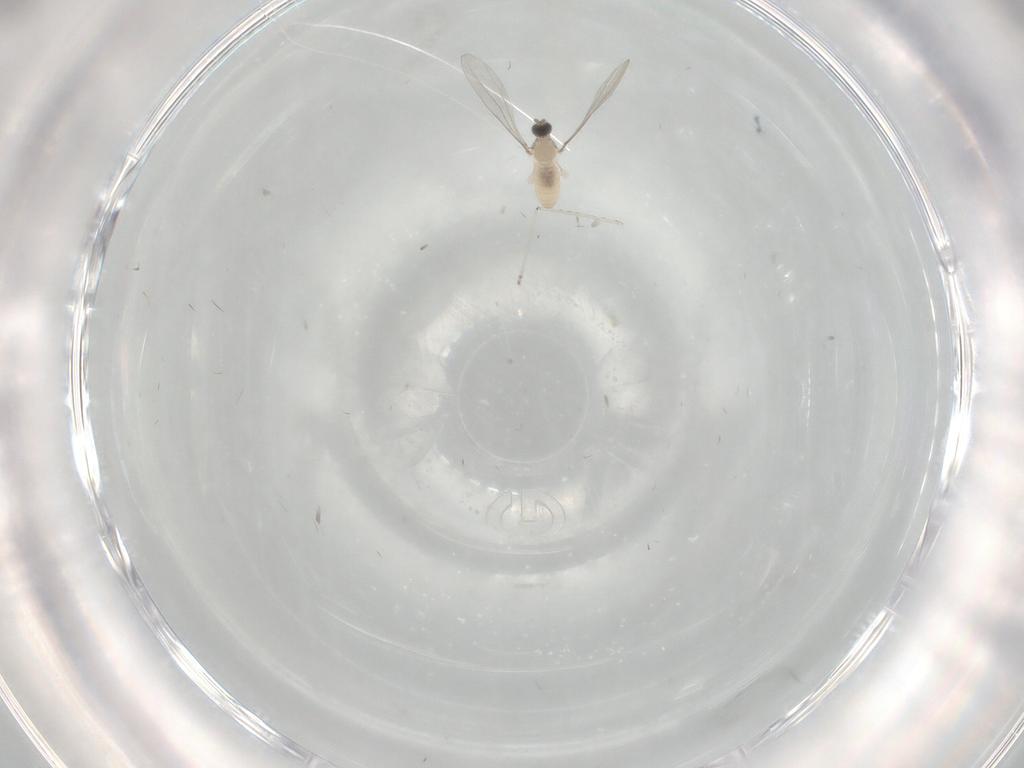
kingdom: Animalia
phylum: Arthropoda
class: Insecta
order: Diptera
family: Cecidomyiidae
